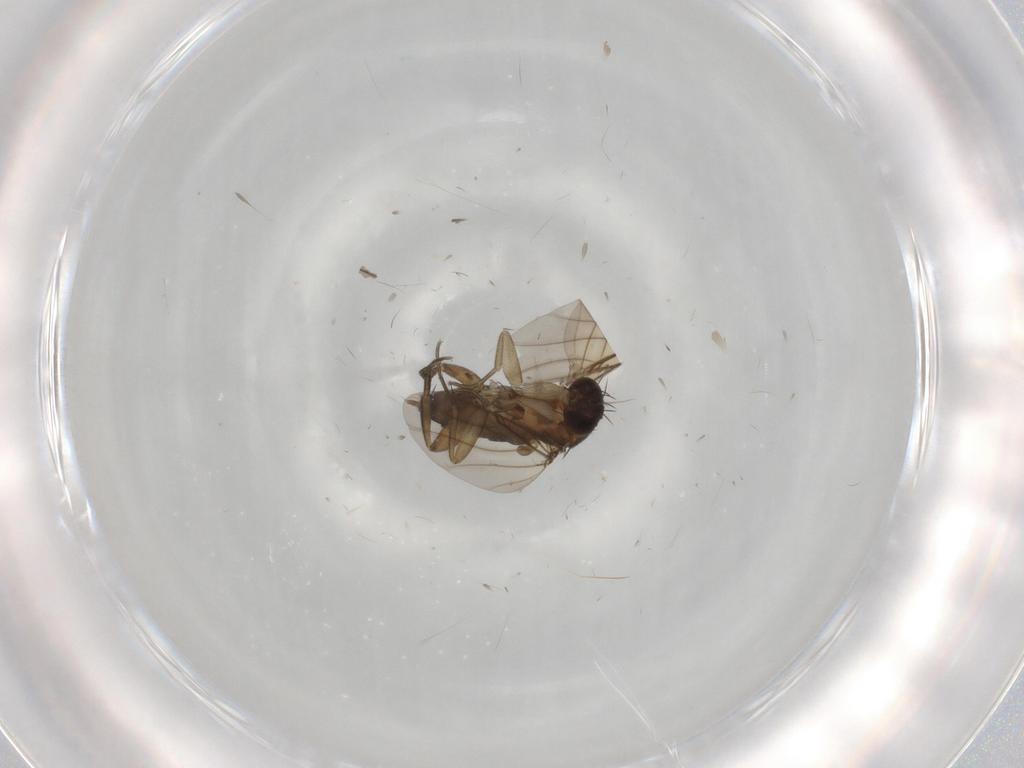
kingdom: Animalia
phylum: Arthropoda
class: Insecta
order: Diptera
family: Phoridae
